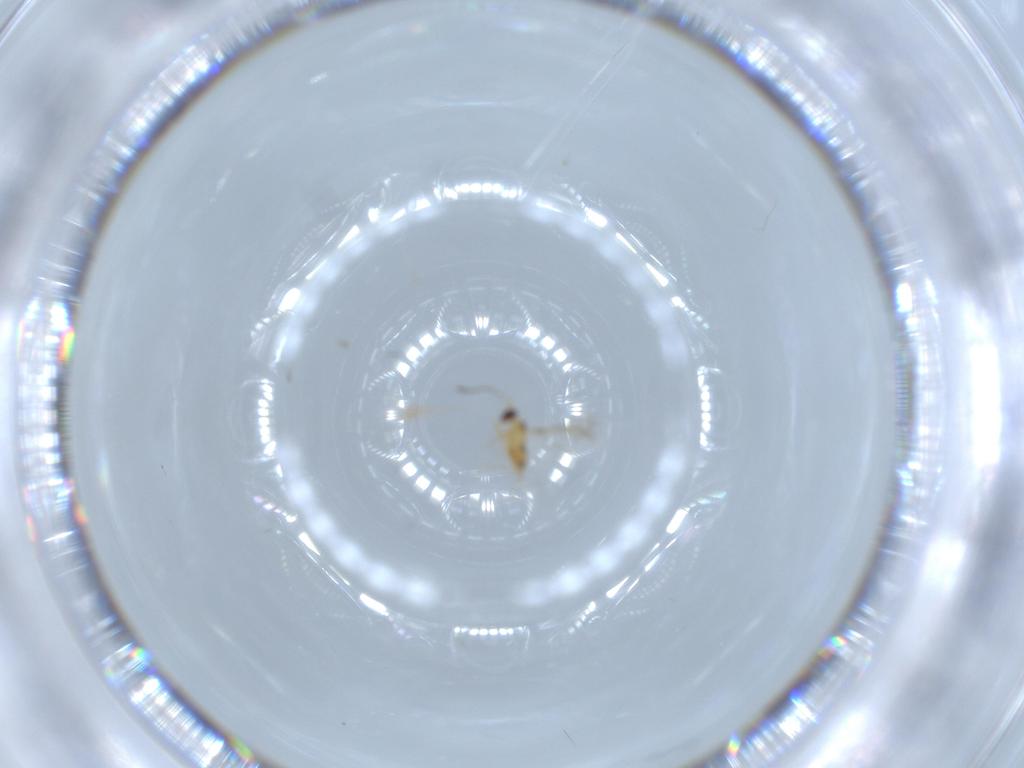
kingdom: Animalia
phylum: Arthropoda
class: Insecta
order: Hymenoptera
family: Mymaridae
